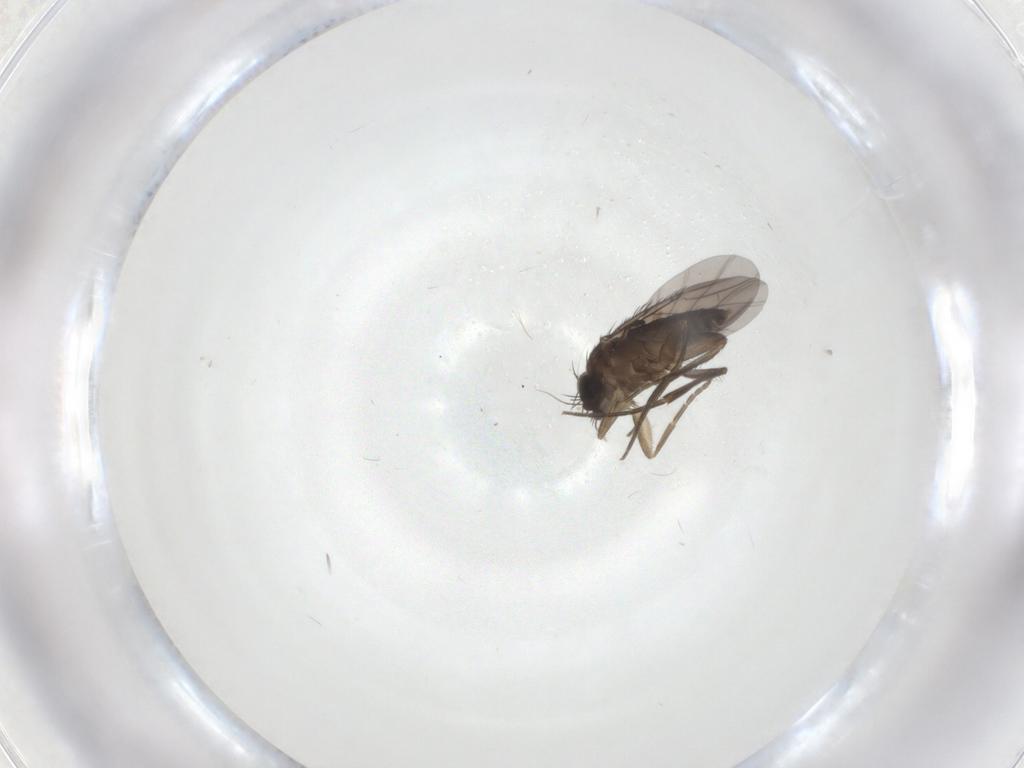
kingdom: Animalia
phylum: Arthropoda
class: Insecta
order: Diptera
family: Phoridae
